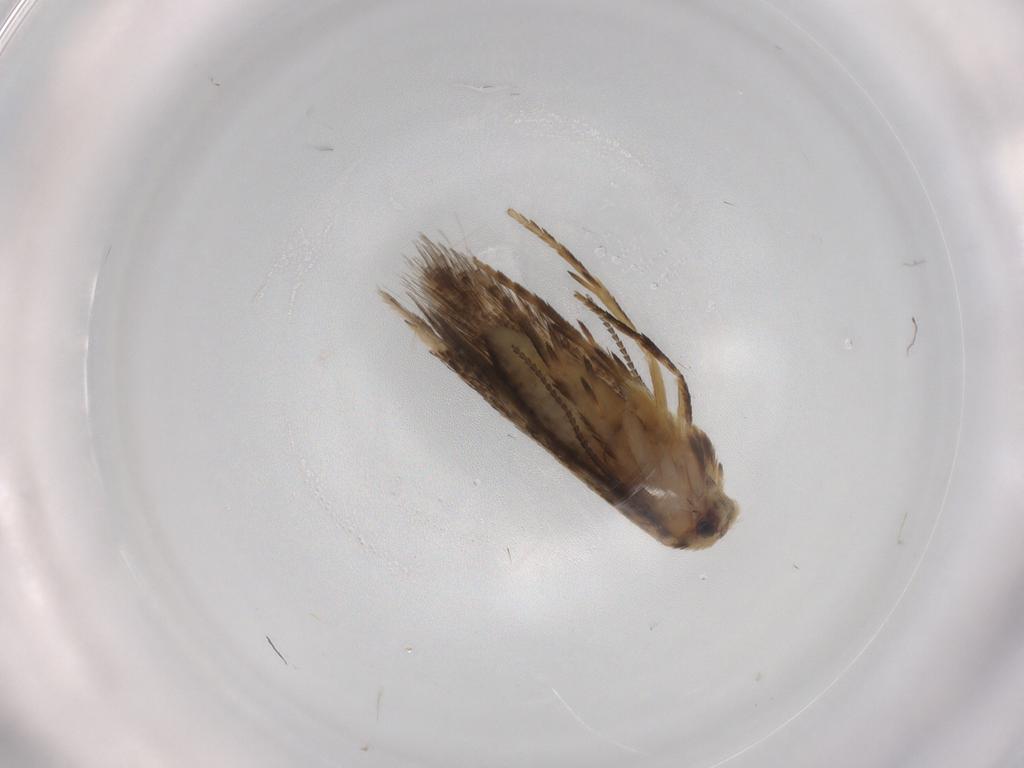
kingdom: Animalia
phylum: Arthropoda
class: Insecta
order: Lepidoptera
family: Nepticulidae
